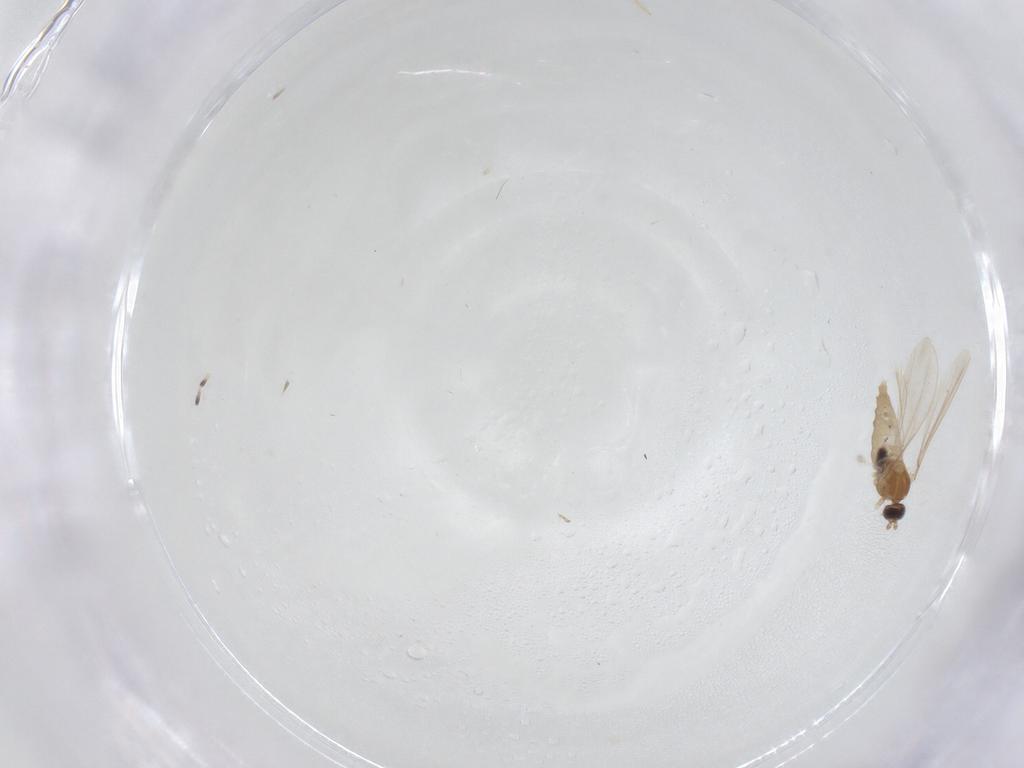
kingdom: Animalia
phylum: Arthropoda
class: Insecta
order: Diptera
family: Cecidomyiidae
